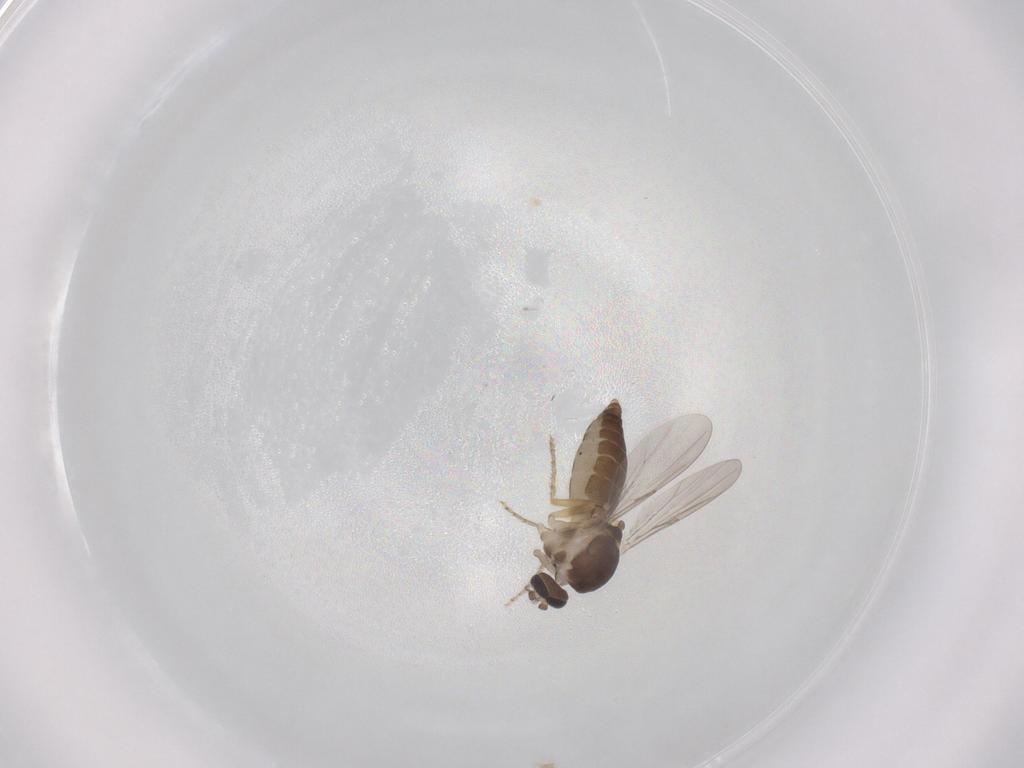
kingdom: Animalia
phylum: Arthropoda
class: Insecta
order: Diptera
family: Ceratopogonidae
